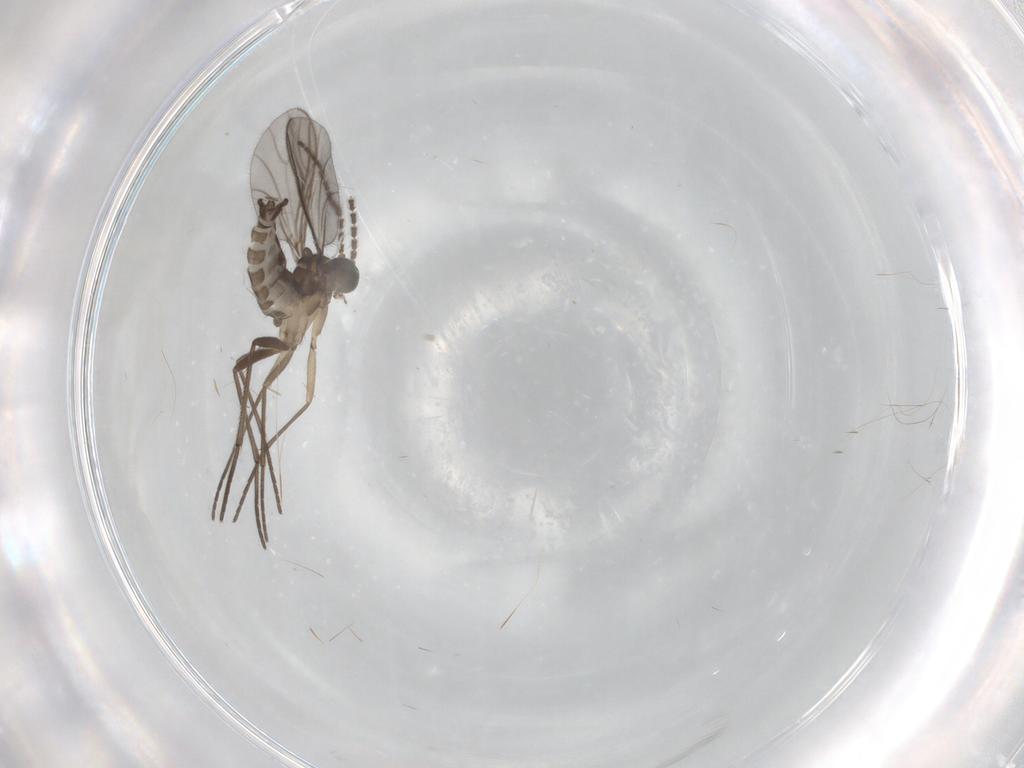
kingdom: Animalia
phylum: Arthropoda
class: Insecta
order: Diptera
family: Sciaridae
